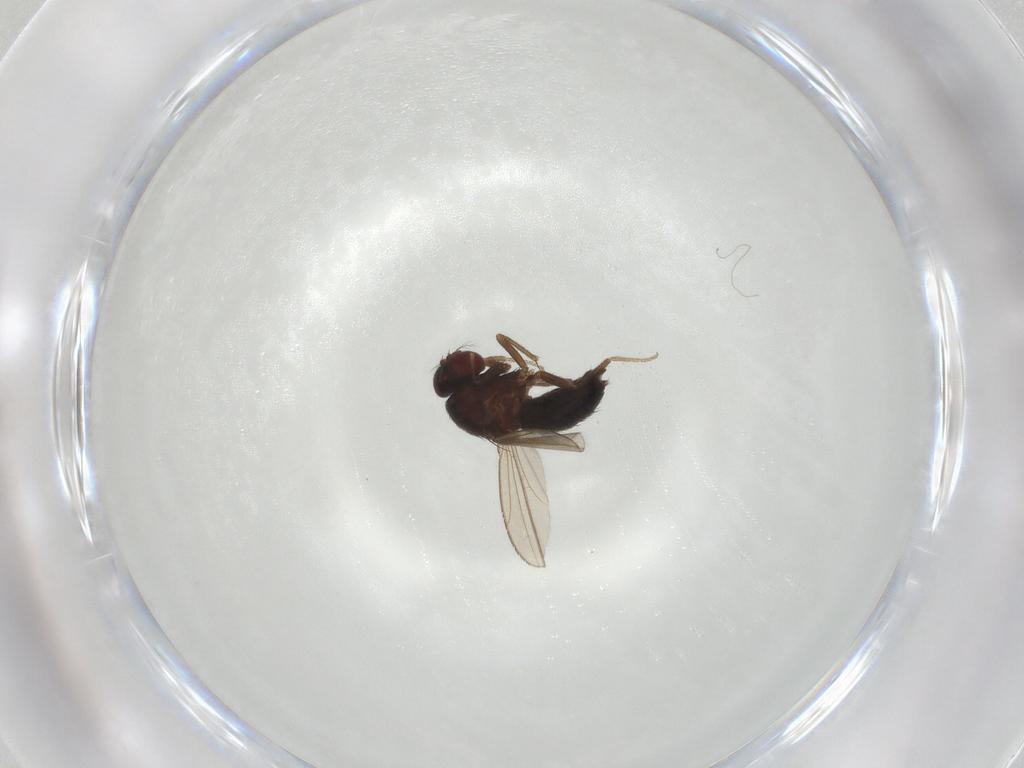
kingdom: Animalia
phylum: Arthropoda
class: Insecta
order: Diptera
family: Drosophilidae
